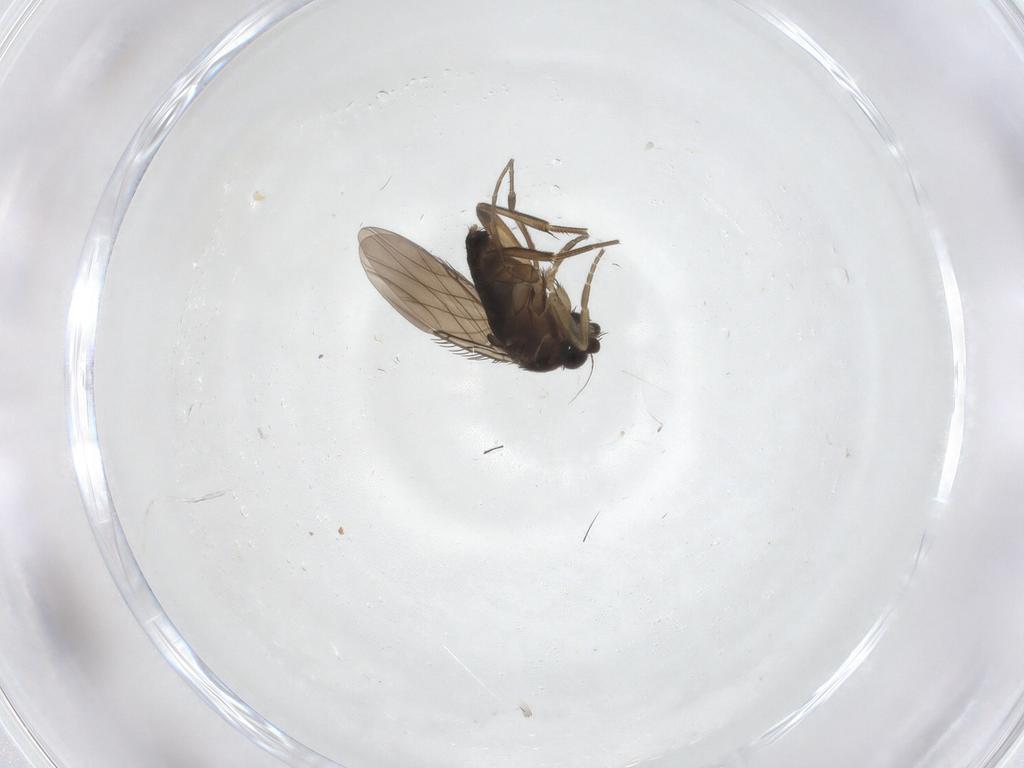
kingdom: Animalia
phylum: Arthropoda
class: Insecta
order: Diptera
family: Phoridae
